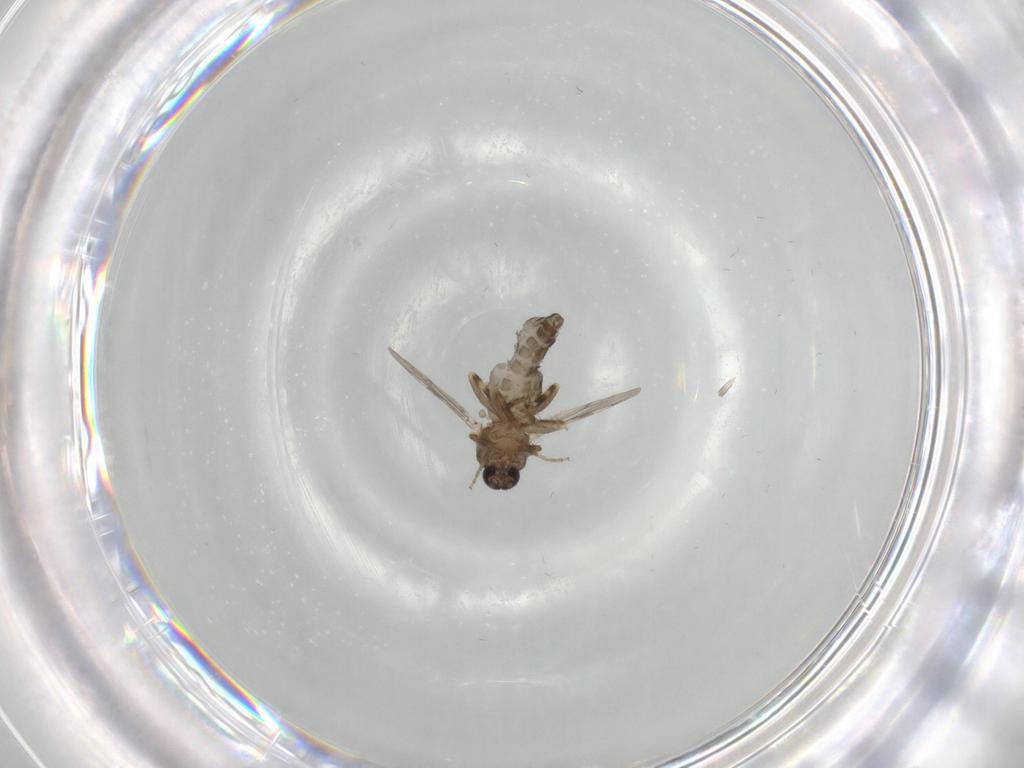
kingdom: Animalia
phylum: Arthropoda
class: Insecta
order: Diptera
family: Ceratopogonidae
